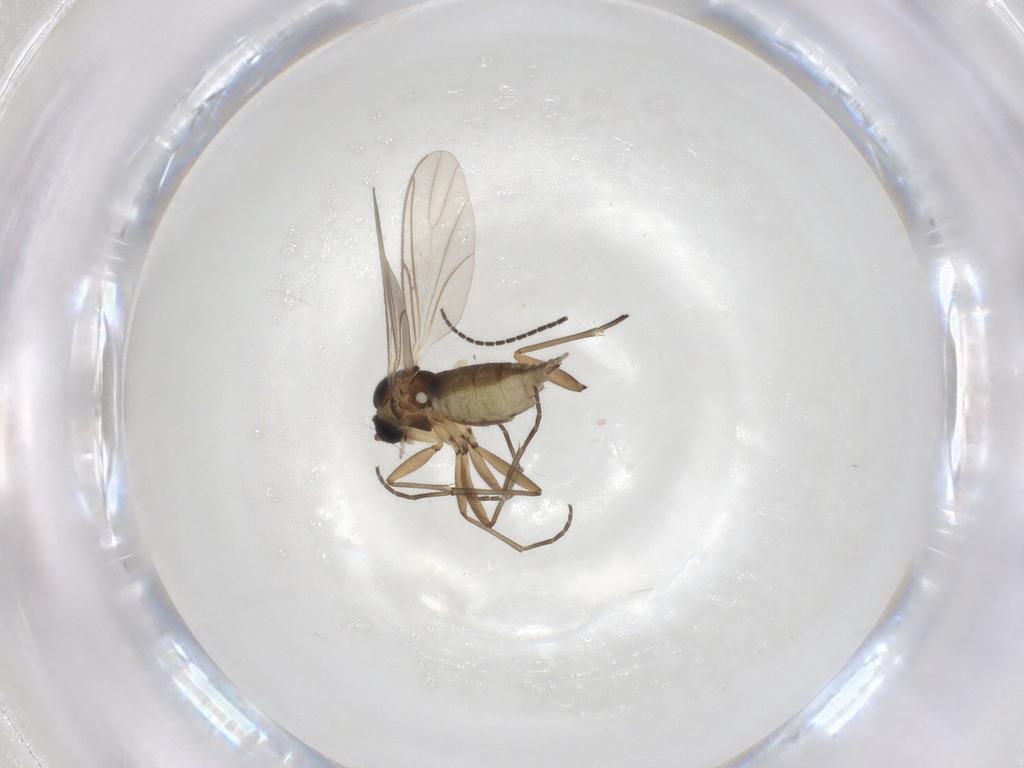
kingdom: Animalia
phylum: Arthropoda
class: Insecta
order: Diptera
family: Sciaridae
